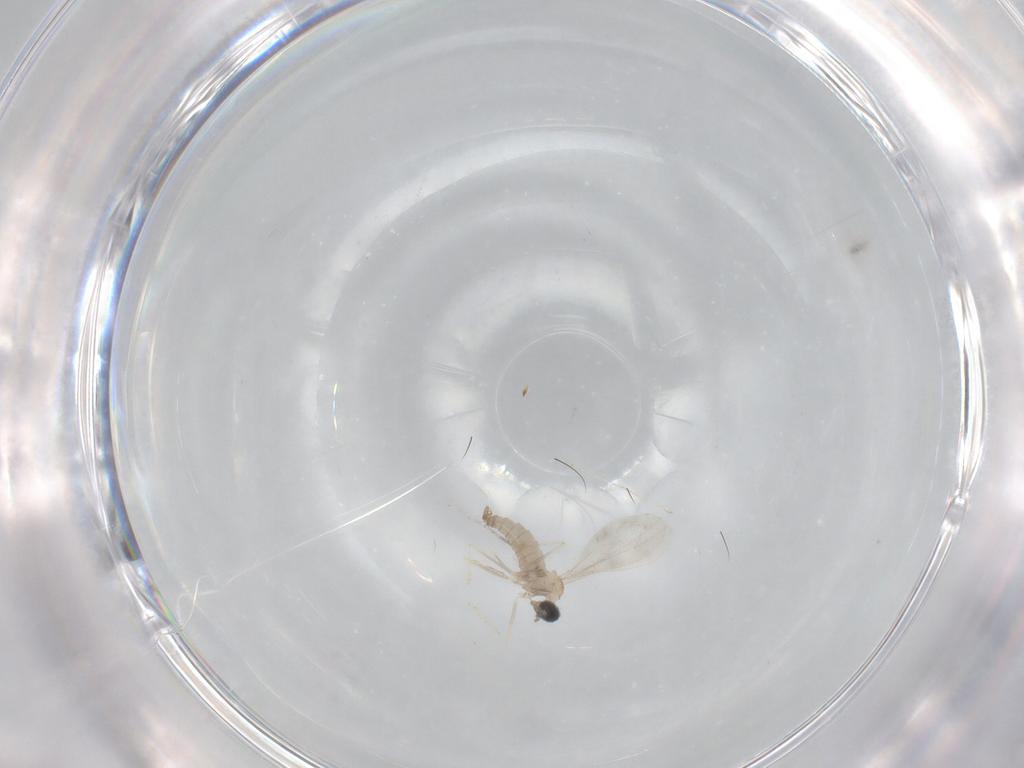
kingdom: Animalia
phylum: Arthropoda
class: Insecta
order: Diptera
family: Cecidomyiidae
